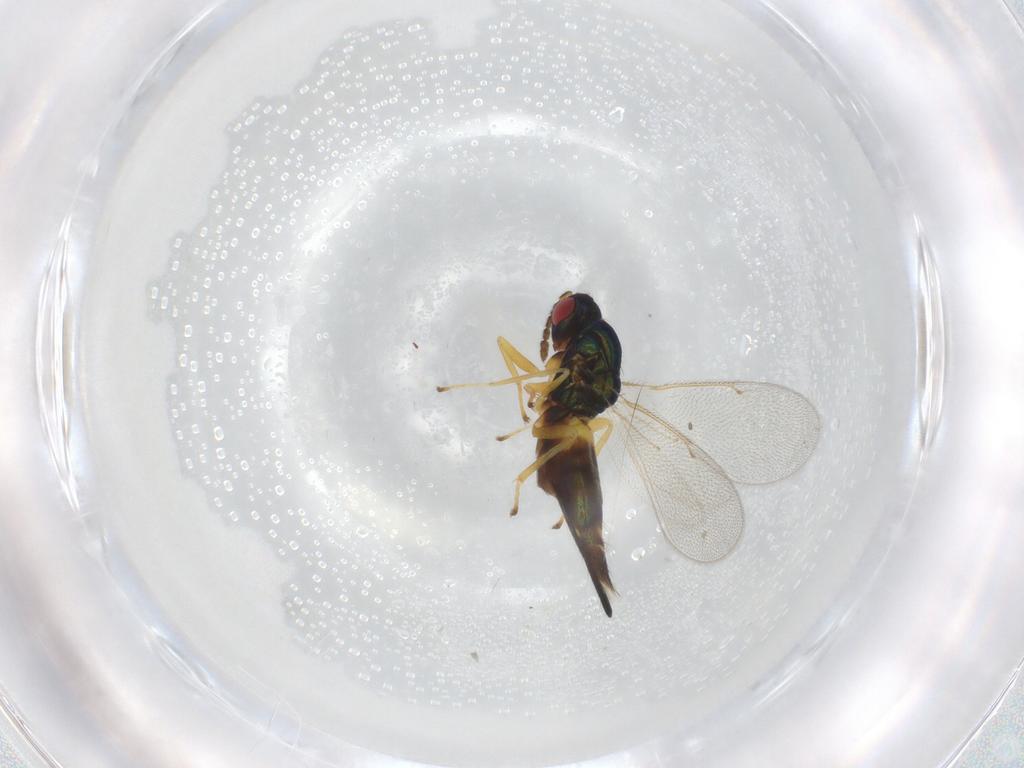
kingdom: Animalia
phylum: Arthropoda
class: Insecta
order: Hymenoptera
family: Eulophidae
